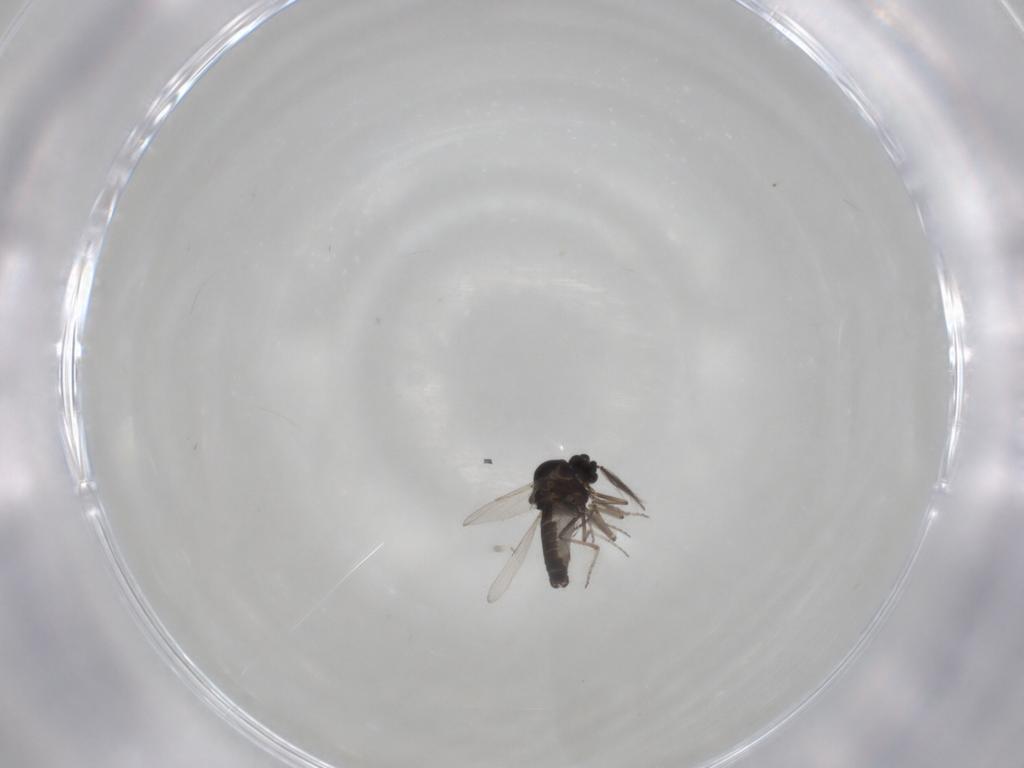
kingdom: Animalia
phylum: Arthropoda
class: Insecta
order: Diptera
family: Ceratopogonidae
